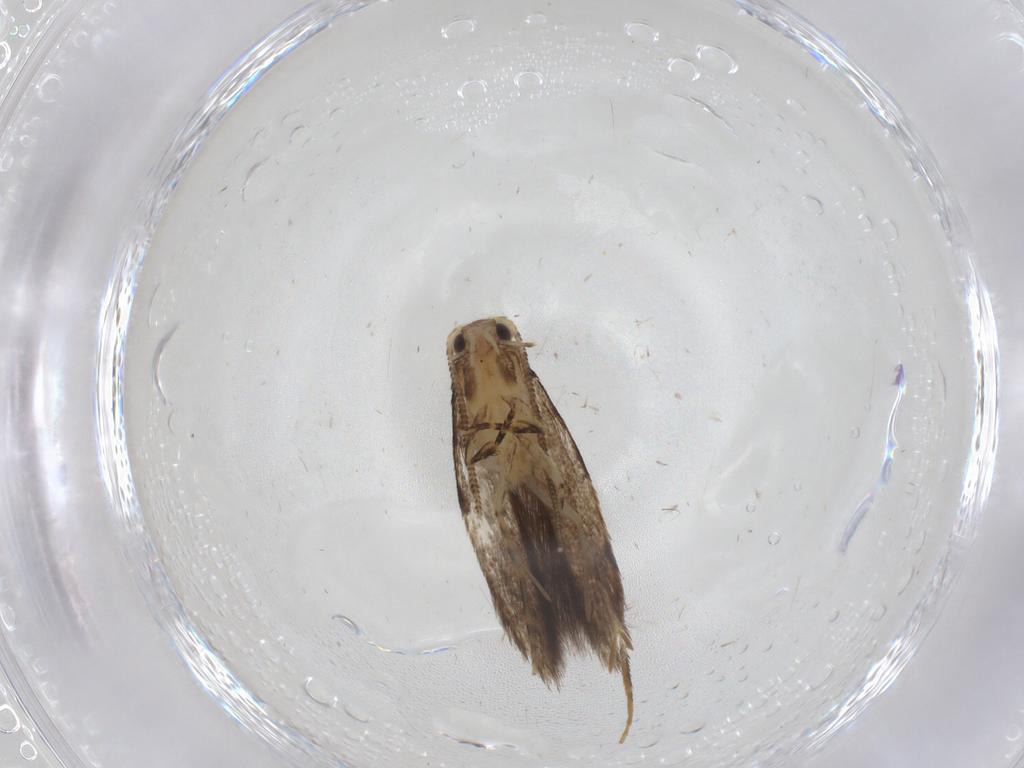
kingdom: Animalia
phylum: Arthropoda
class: Insecta
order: Lepidoptera
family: Tineidae
